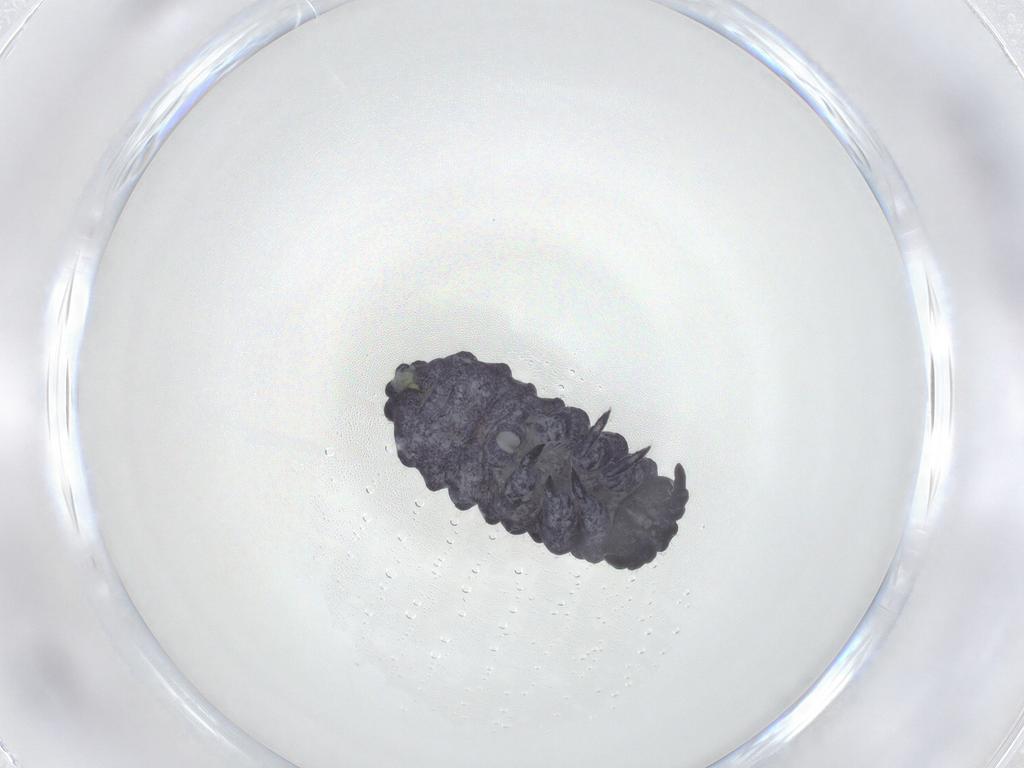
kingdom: Animalia
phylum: Arthropoda
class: Collembola
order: Poduromorpha
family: Neanuridae
